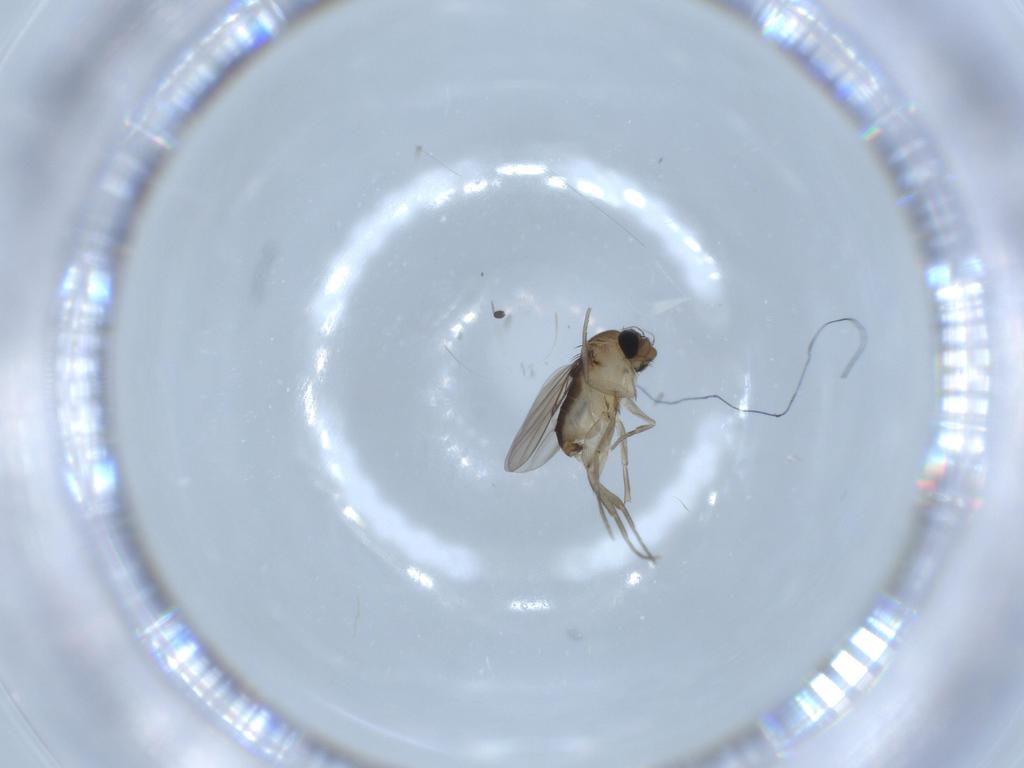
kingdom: Animalia
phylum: Arthropoda
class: Insecta
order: Diptera
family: Phoridae
